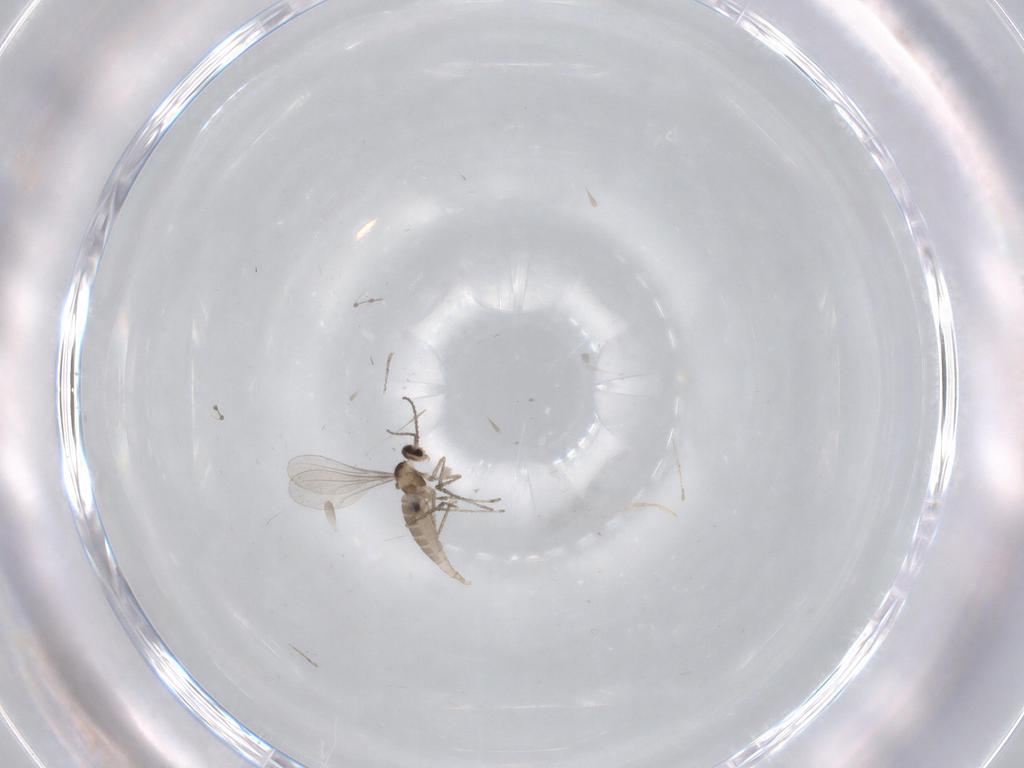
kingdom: Animalia
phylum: Arthropoda
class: Insecta
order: Diptera
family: Cecidomyiidae
